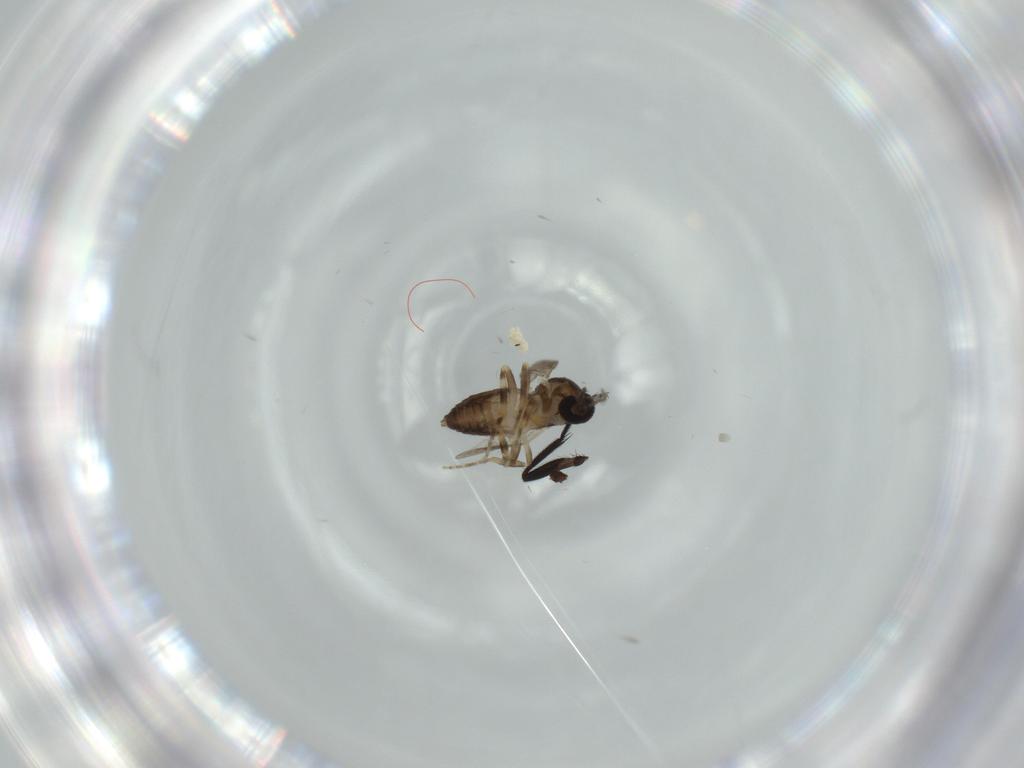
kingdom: Animalia
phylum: Arthropoda
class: Insecta
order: Diptera
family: Ceratopogonidae
